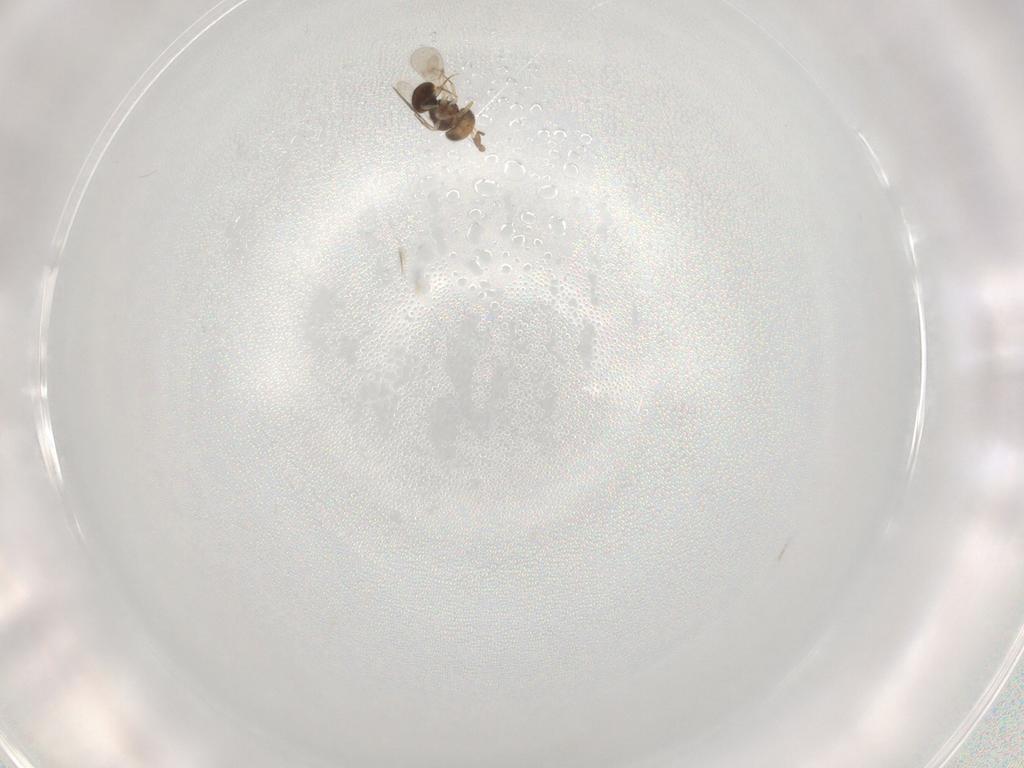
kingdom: Animalia
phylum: Arthropoda
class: Insecta
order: Hymenoptera
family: Scelionidae
